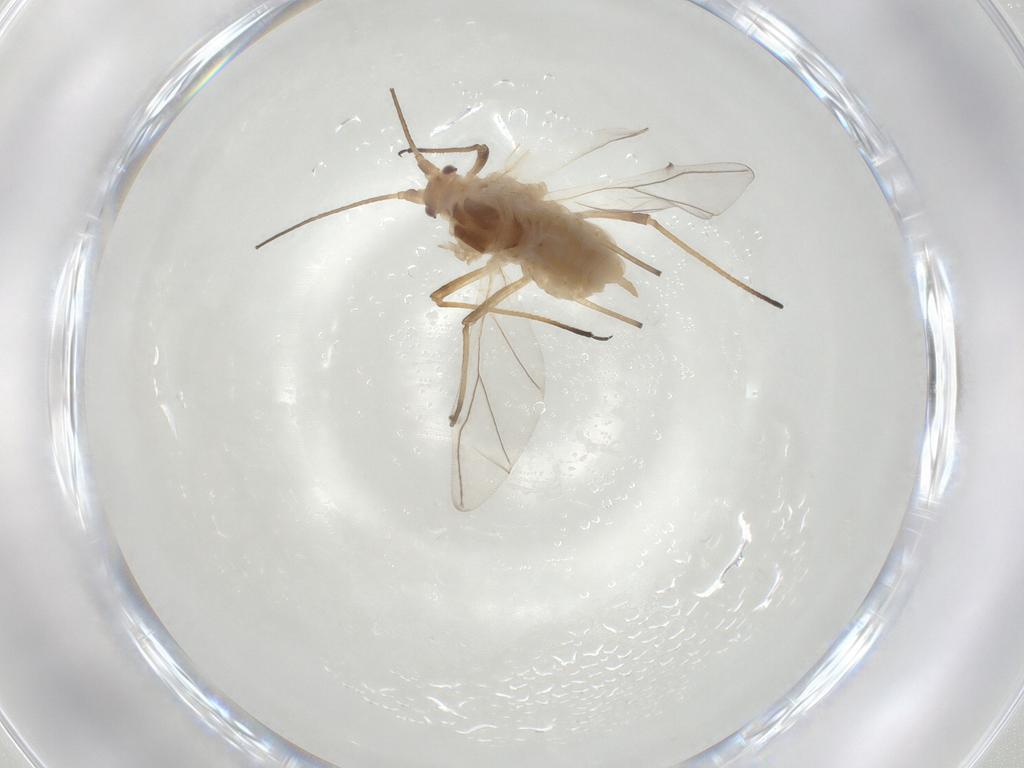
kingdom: Animalia
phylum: Arthropoda
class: Insecta
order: Hemiptera
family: Aphididae
